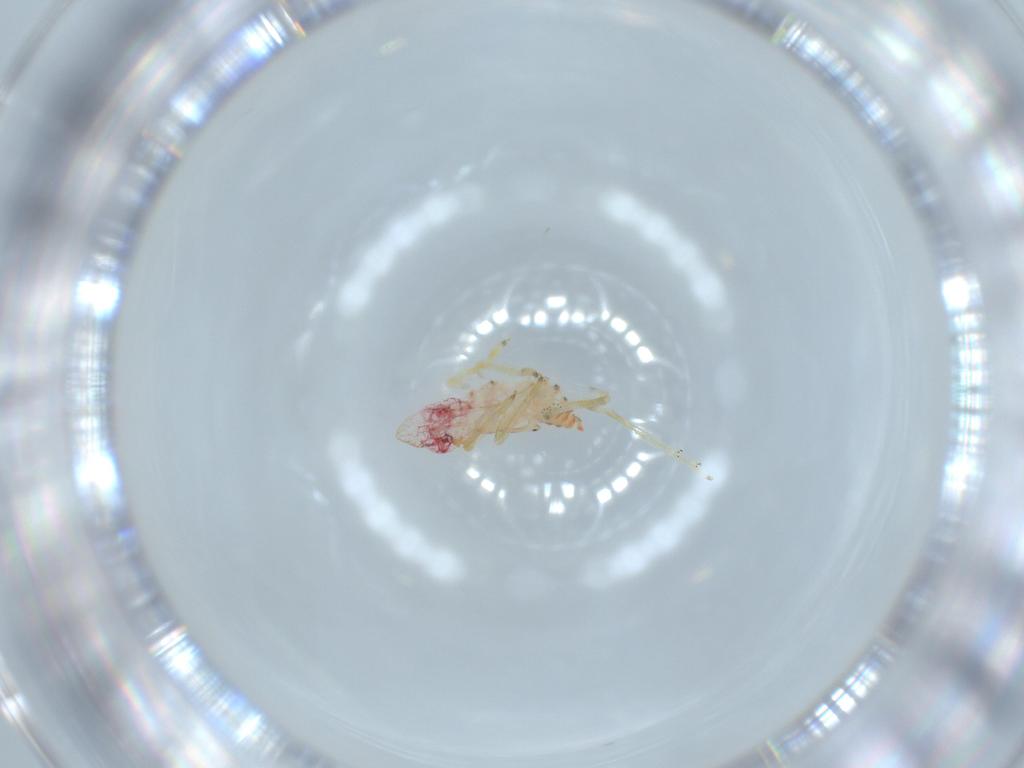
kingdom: Animalia
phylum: Arthropoda
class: Insecta
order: Hemiptera
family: Tropiduchidae
